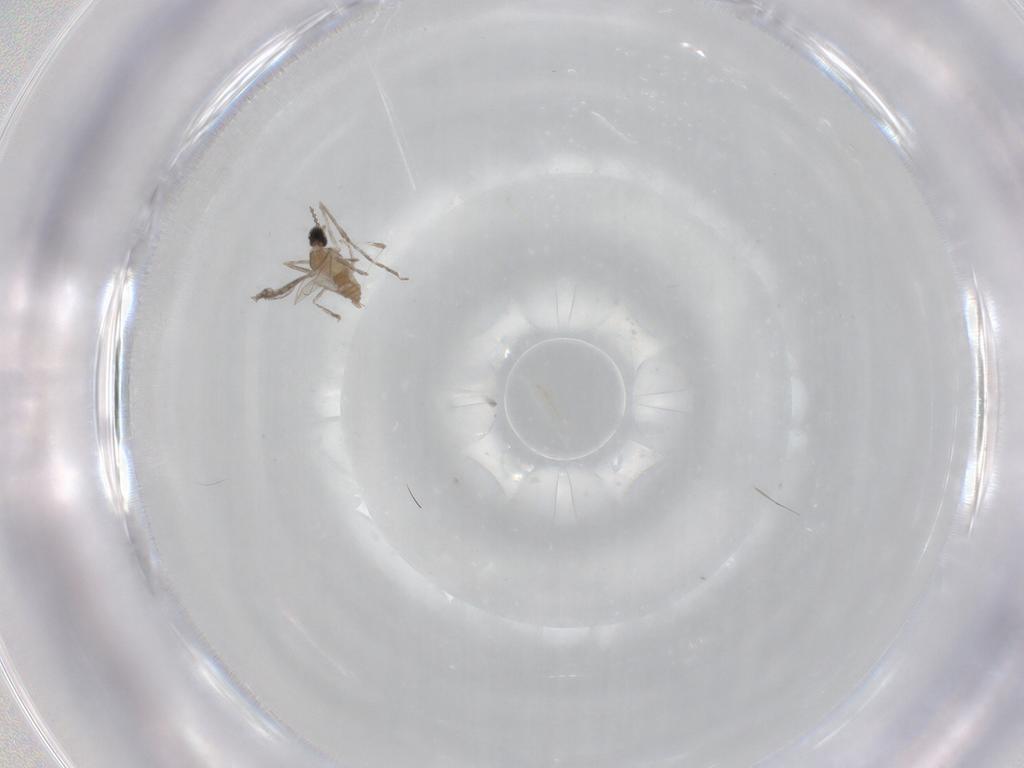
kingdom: Animalia
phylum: Arthropoda
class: Insecta
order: Diptera
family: Cecidomyiidae
